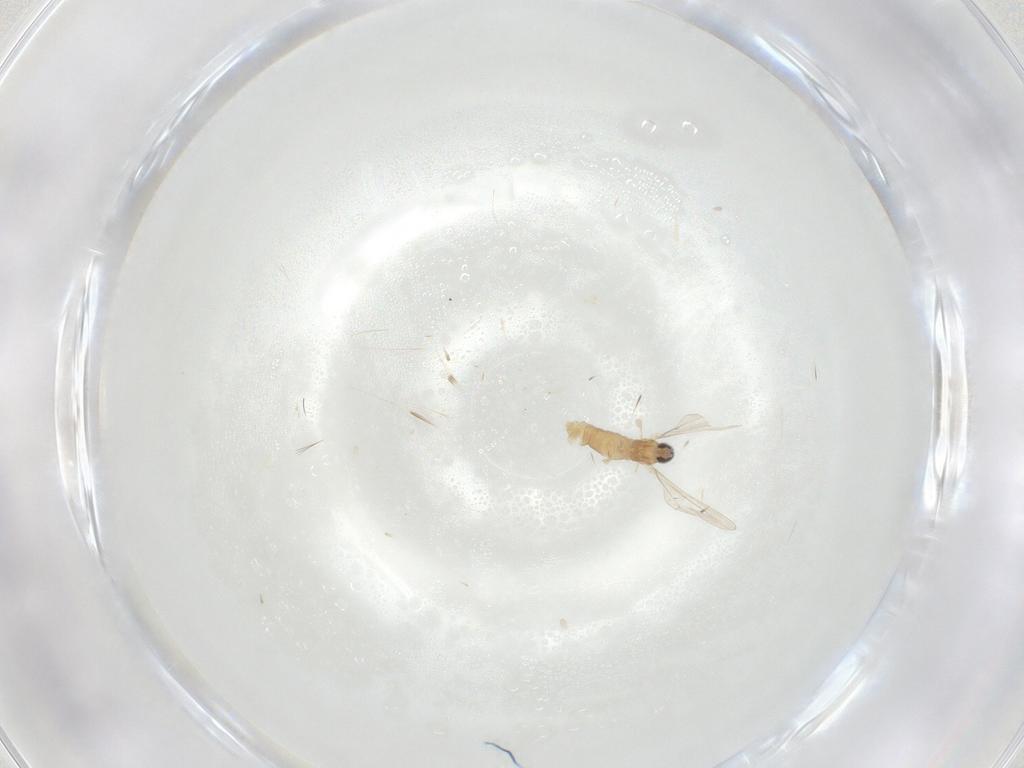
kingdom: Animalia
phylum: Arthropoda
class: Insecta
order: Diptera
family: Cecidomyiidae
